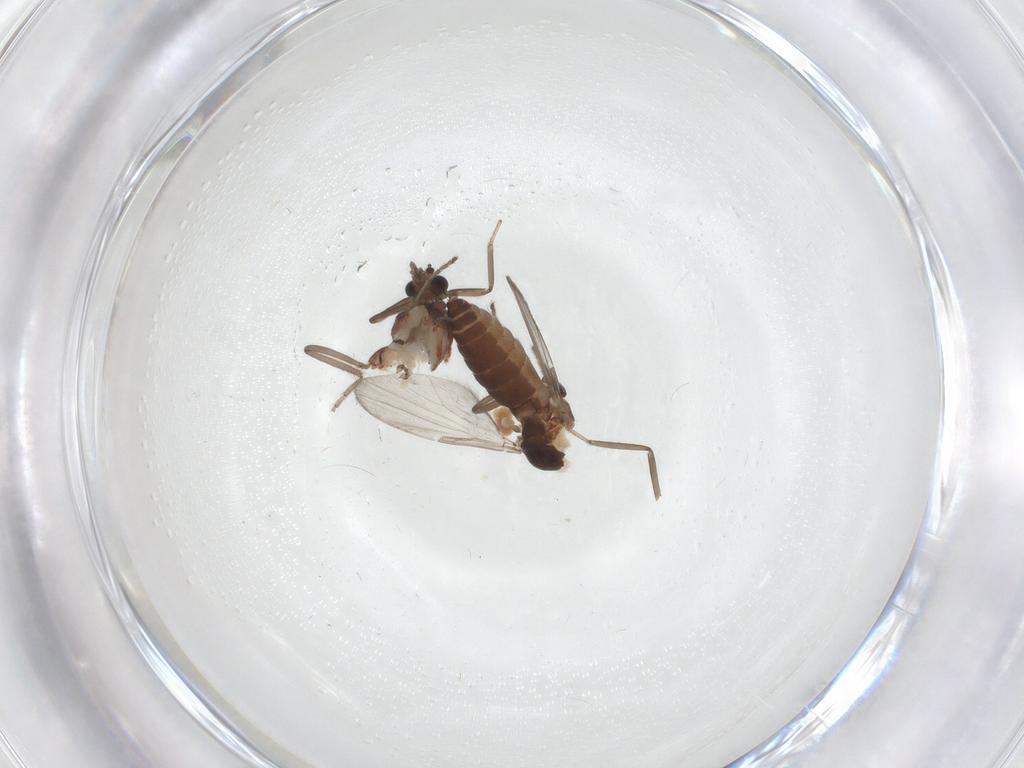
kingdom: Animalia
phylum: Arthropoda
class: Insecta
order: Diptera
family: Ceratopogonidae
